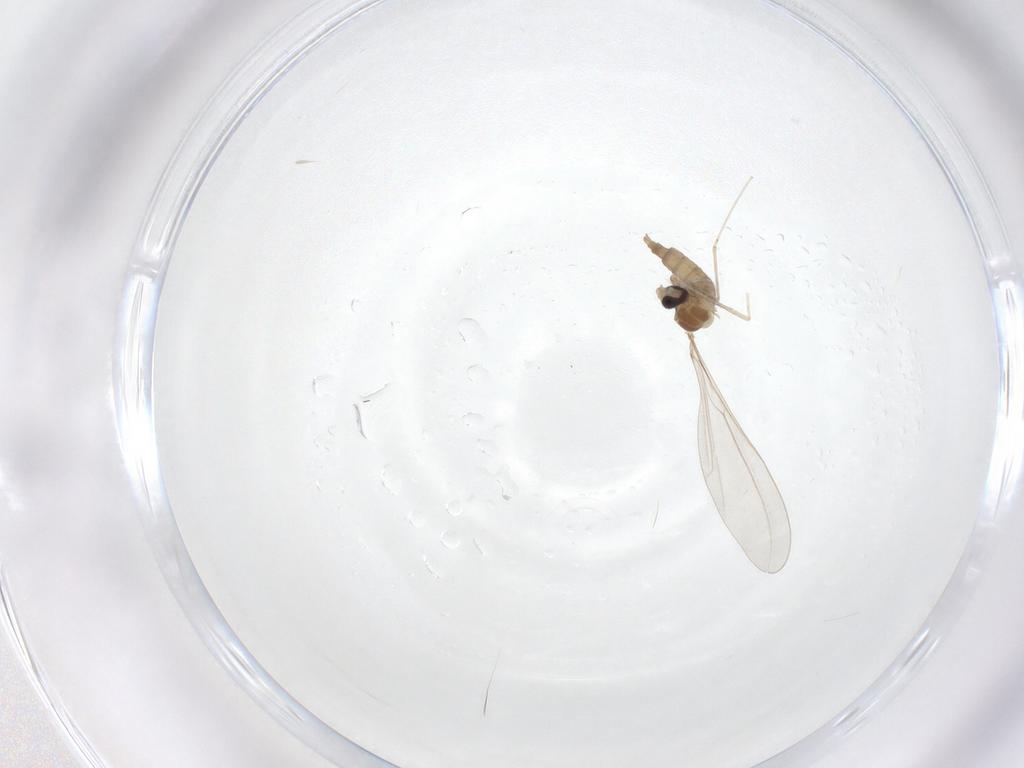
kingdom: Animalia
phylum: Arthropoda
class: Insecta
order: Diptera
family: Cecidomyiidae
